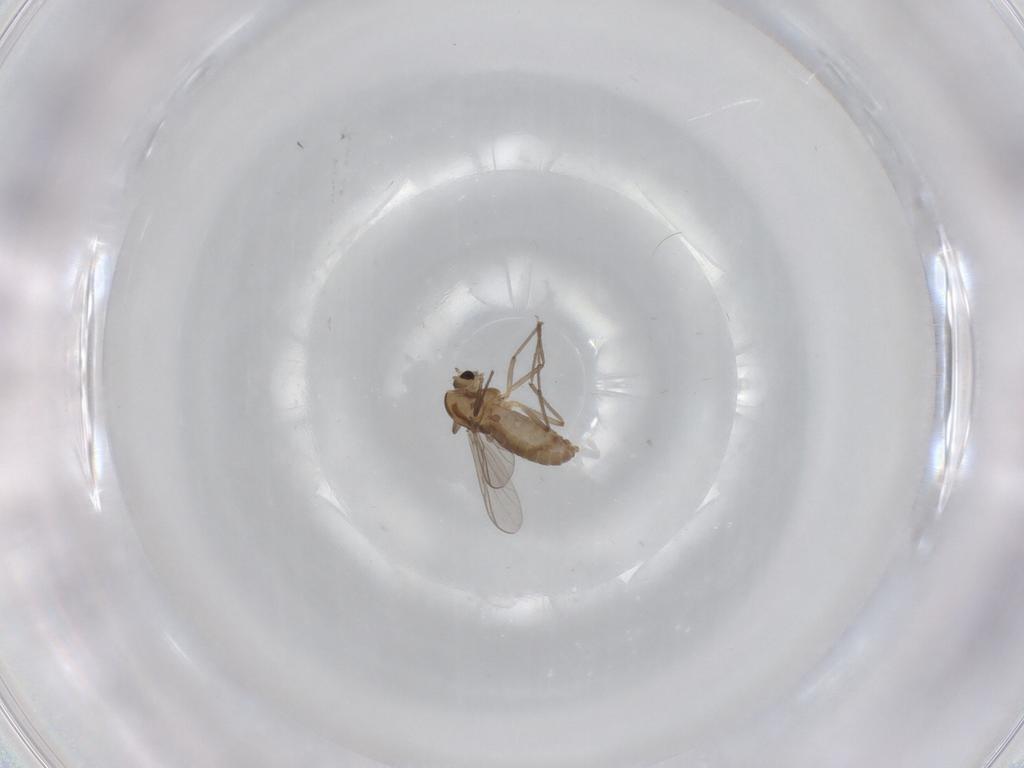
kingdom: Animalia
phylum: Arthropoda
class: Insecta
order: Diptera
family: Chironomidae
